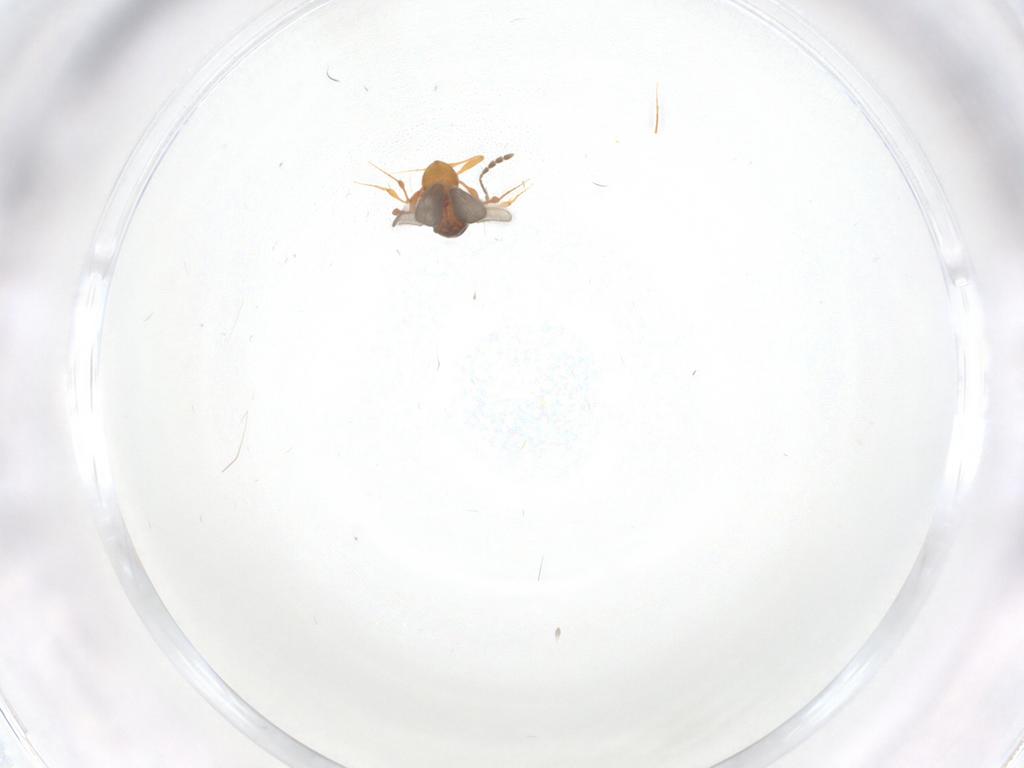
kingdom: Animalia
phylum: Arthropoda
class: Insecta
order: Hymenoptera
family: Platygastridae
